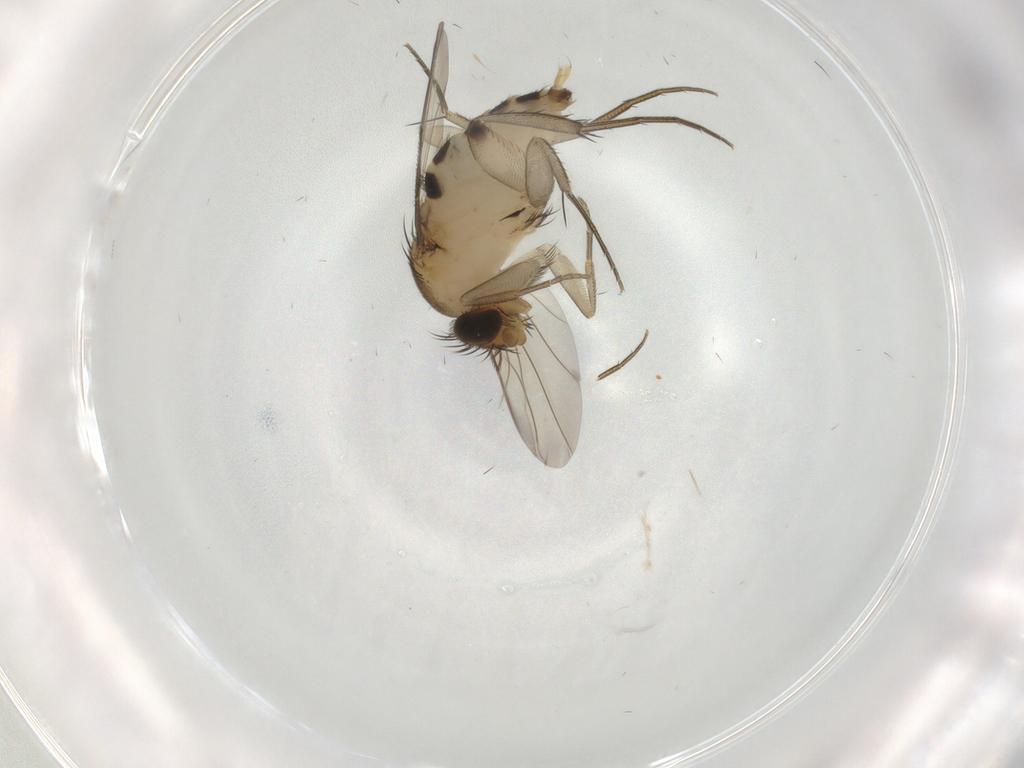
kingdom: Animalia
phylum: Arthropoda
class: Insecta
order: Diptera
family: Phoridae
